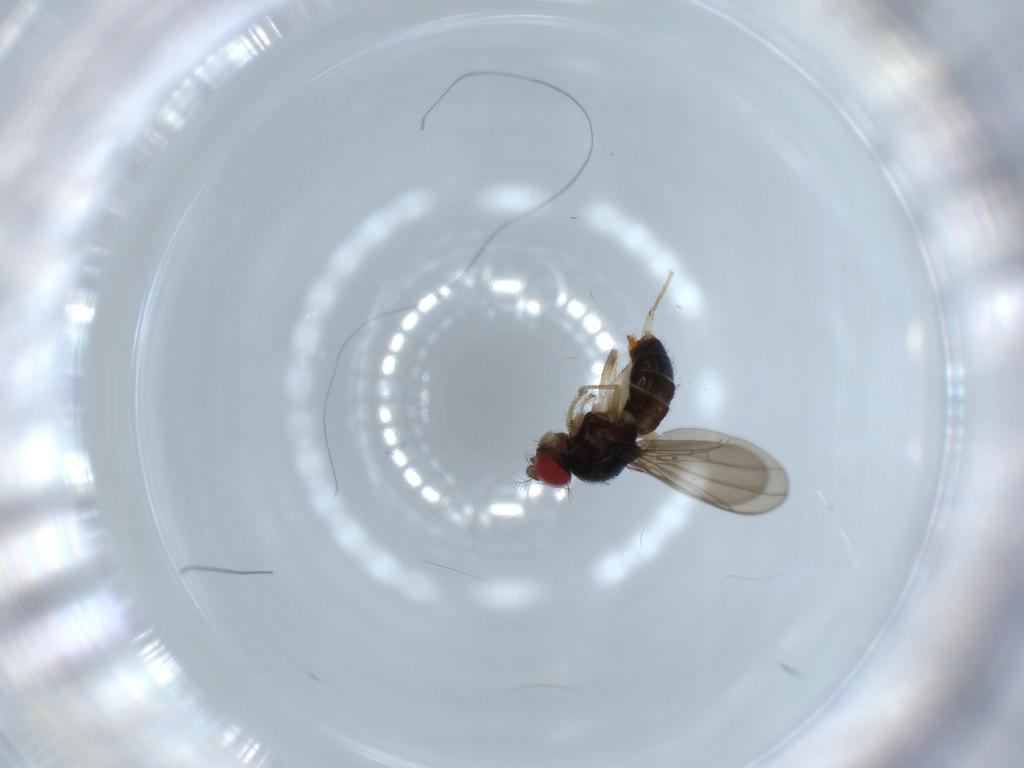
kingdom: Animalia
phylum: Arthropoda
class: Insecta
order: Diptera
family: Drosophilidae
